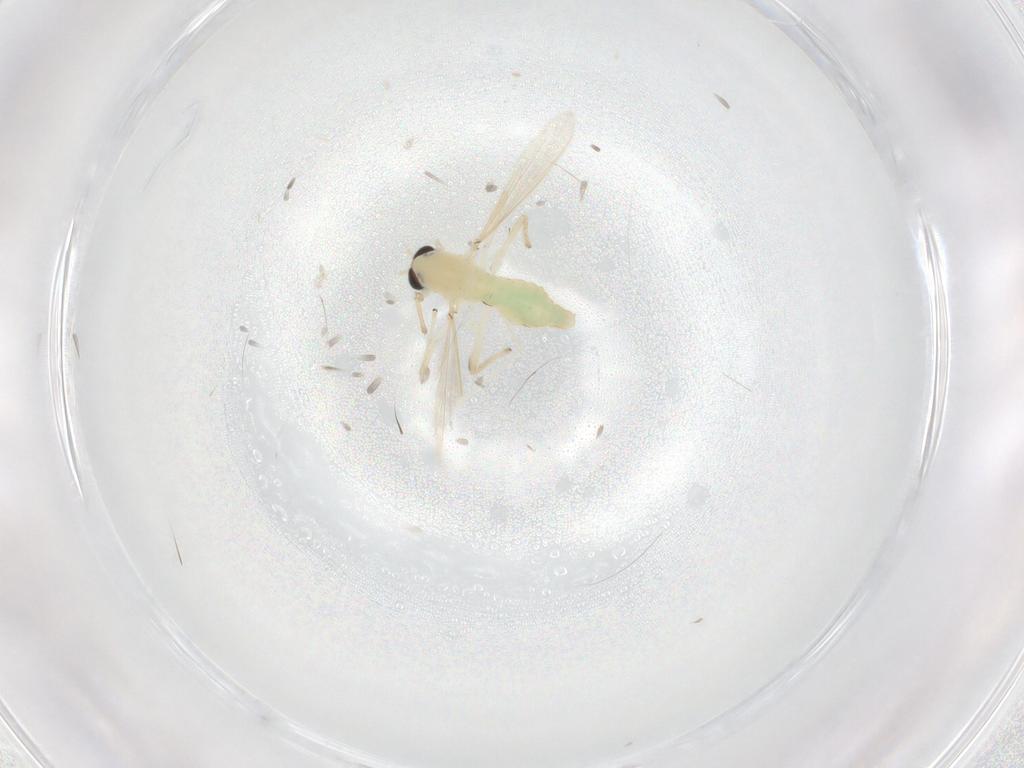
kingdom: Animalia
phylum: Arthropoda
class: Insecta
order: Diptera
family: Chironomidae
